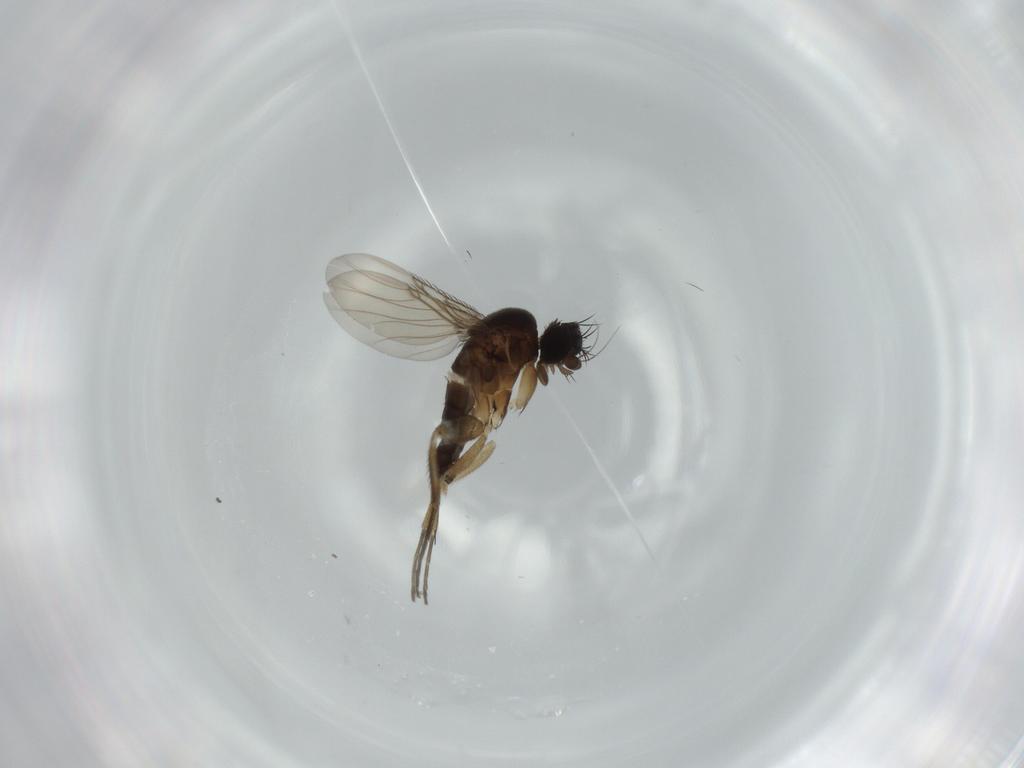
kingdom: Animalia
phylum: Arthropoda
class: Insecta
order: Diptera
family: Phoridae
